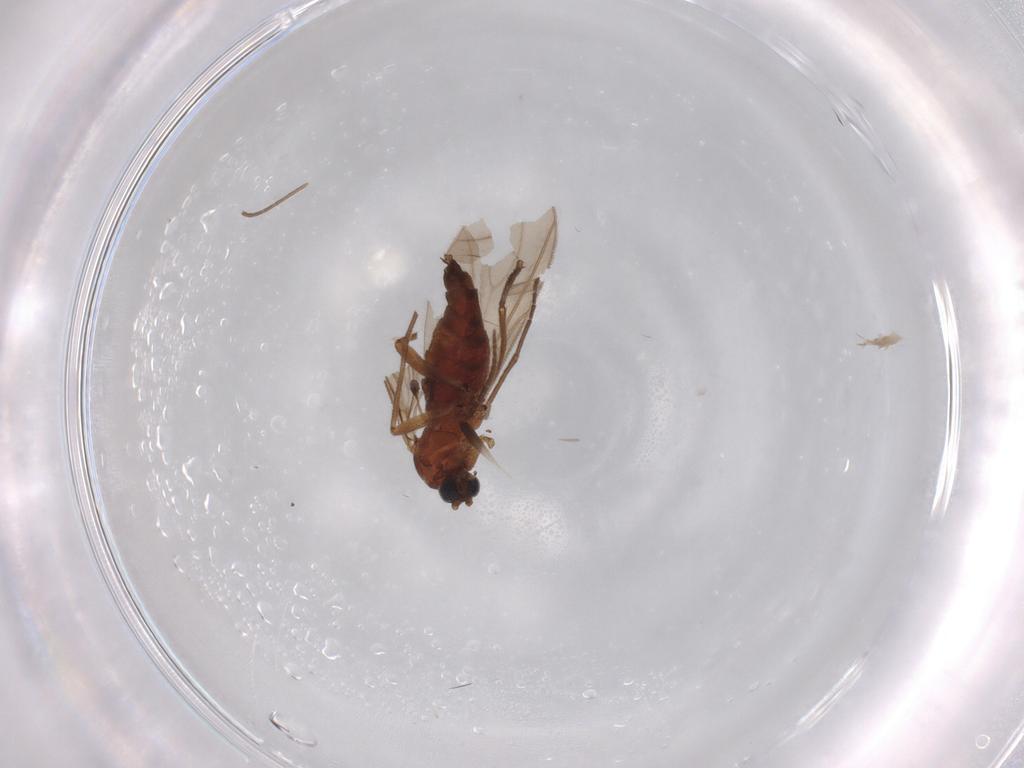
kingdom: Animalia
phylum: Arthropoda
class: Insecta
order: Diptera
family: Sciaridae
